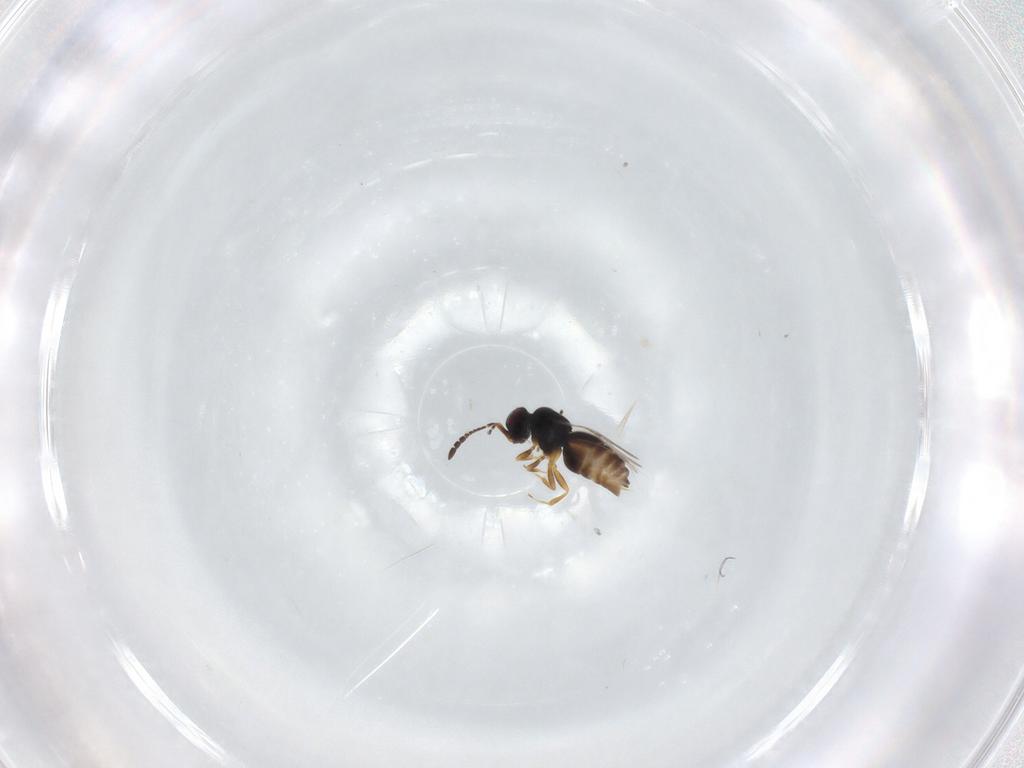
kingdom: Animalia
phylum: Arthropoda
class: Insecta
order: Hymenoptera
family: Ceraphronidae
